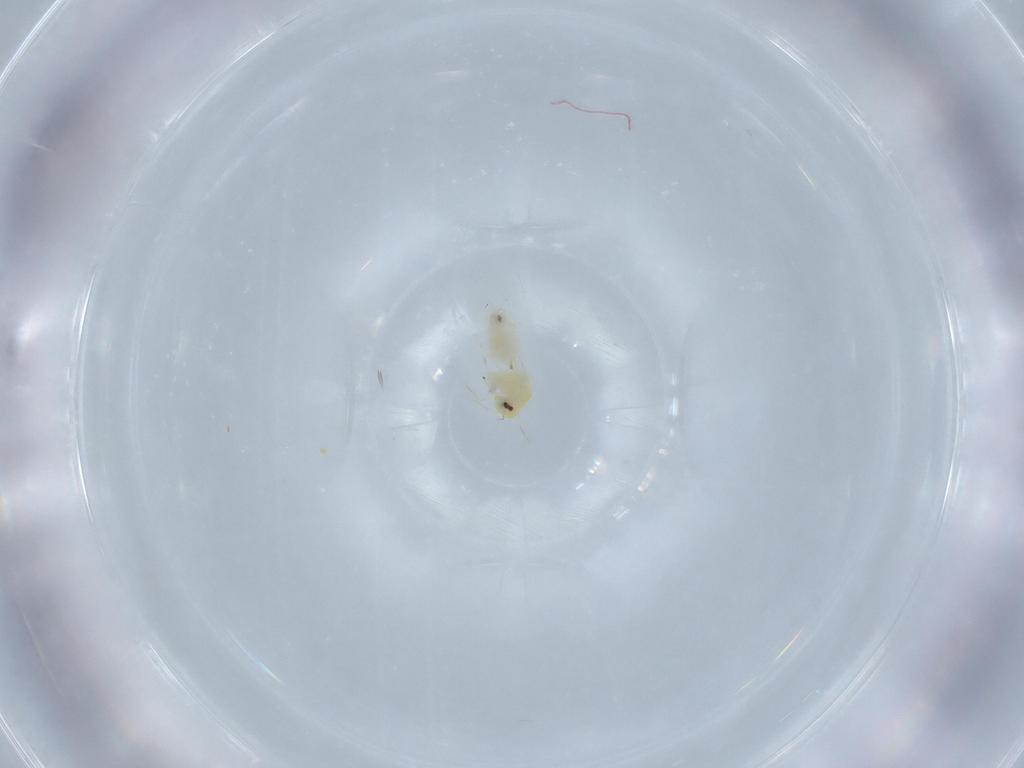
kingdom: Animalia
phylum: Arthropoda
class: Insecta
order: Hemiptera
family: Aleyrodidae
